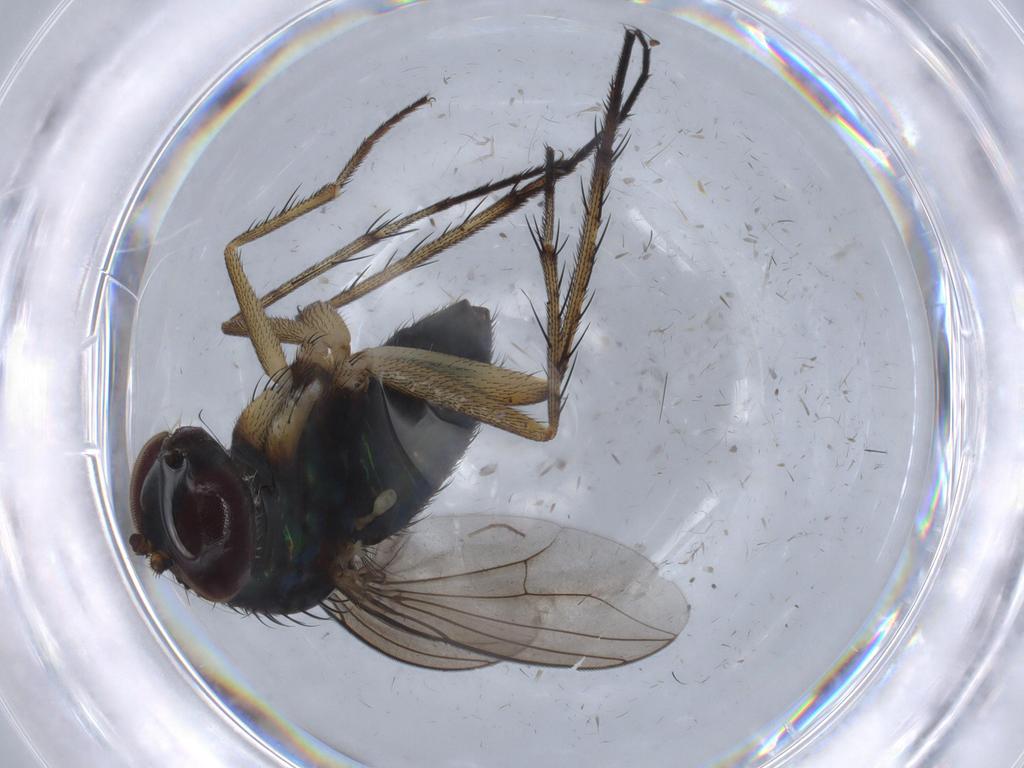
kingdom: Animalia
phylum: Arthropoda
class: Insecta
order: Diptera
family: Dolichopodidae
